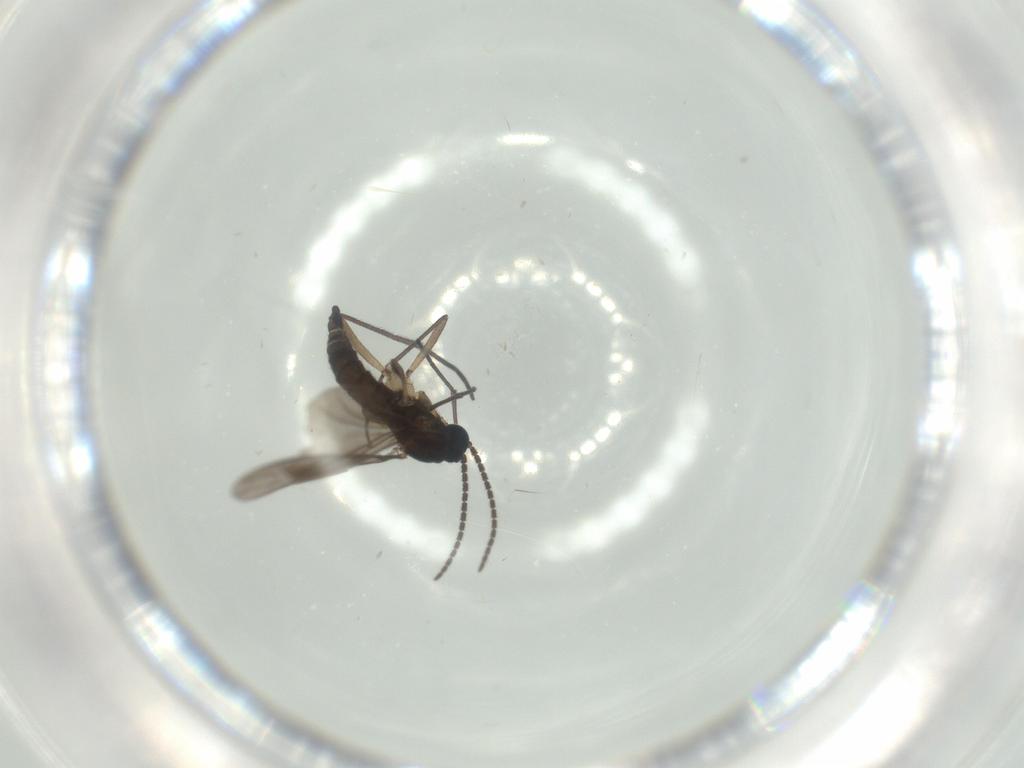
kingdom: Animalia
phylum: Arthropoda
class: Insecta
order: Diptera
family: Sciaridae
